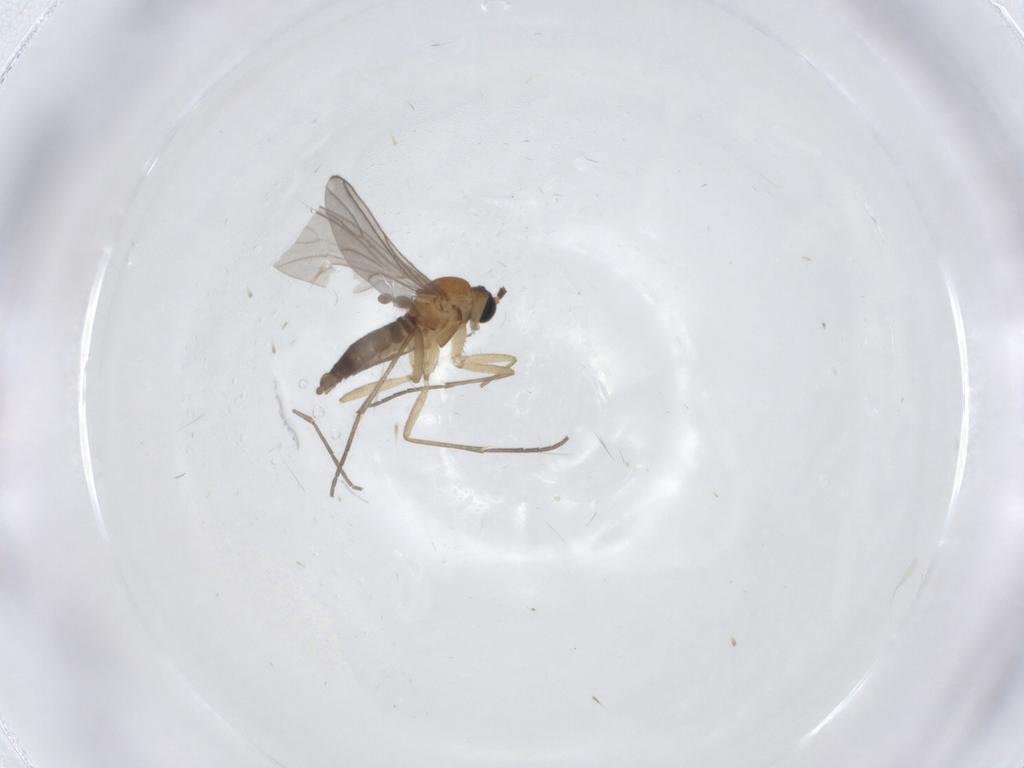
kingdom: Animalia
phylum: Arthropoda
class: Insecta
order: Diptera
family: Sciaridae
